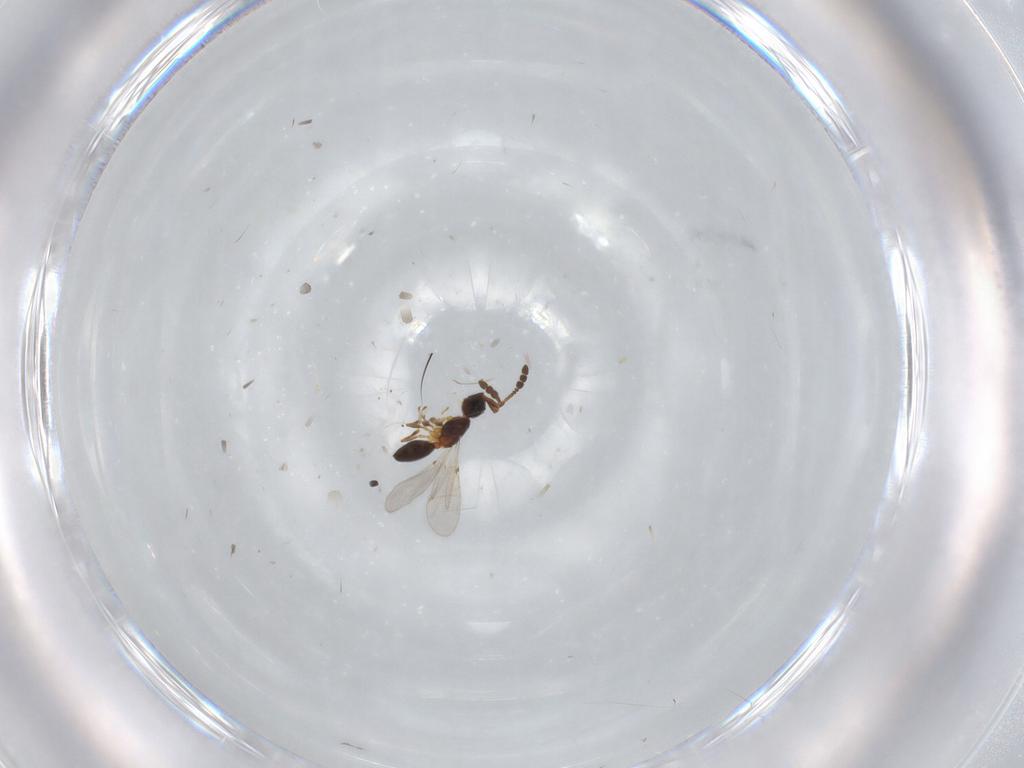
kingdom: Animalia
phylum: Arthropoda
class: Insecta
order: Hymenoptera
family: Diapriidae
